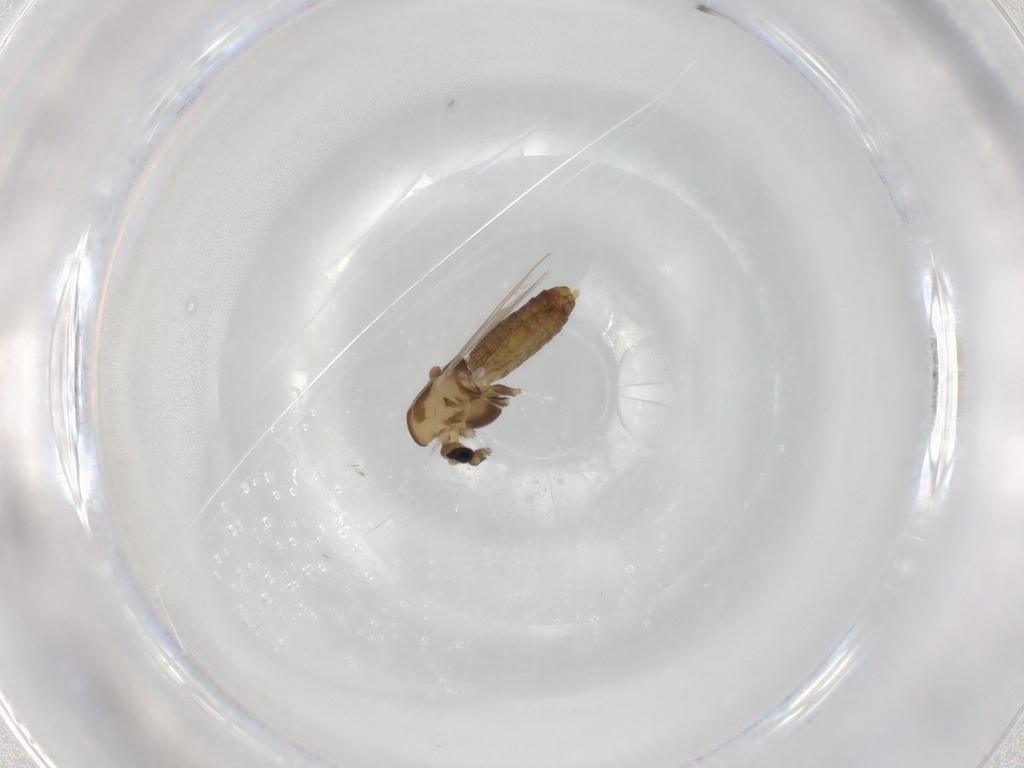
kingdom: Animalia
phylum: Arthropoda
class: Insecta
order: Diptera
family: Chironomidae
